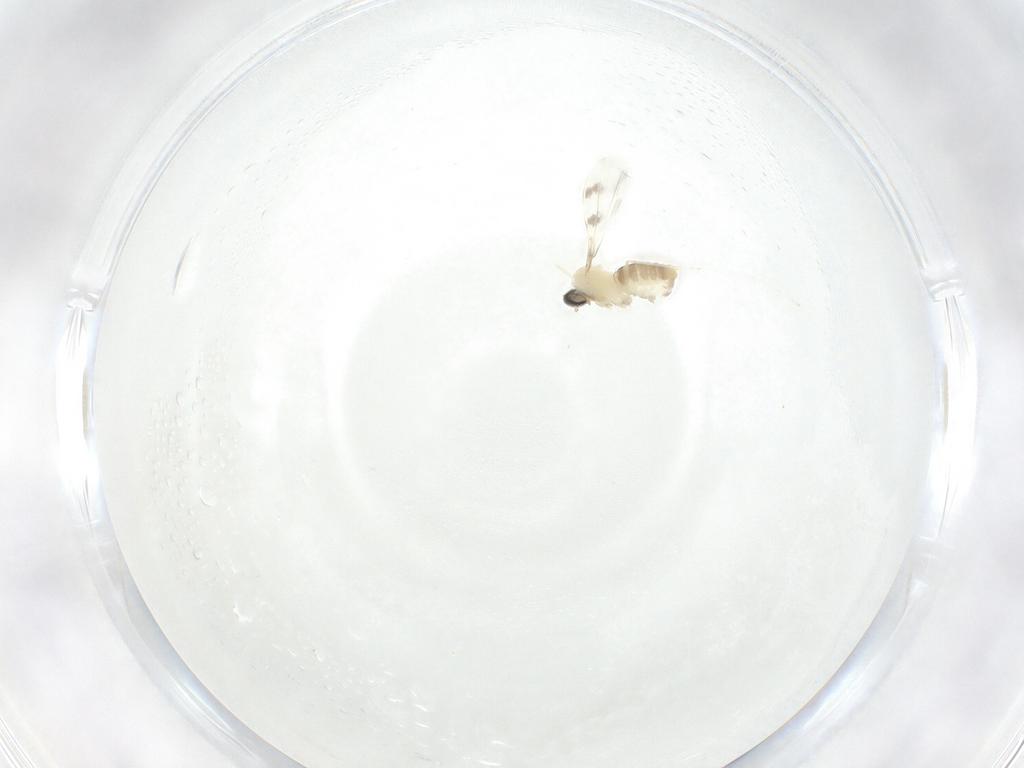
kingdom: Animalia
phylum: Arthropoda
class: Insecta
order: Diptera
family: Cecidomyiidae
